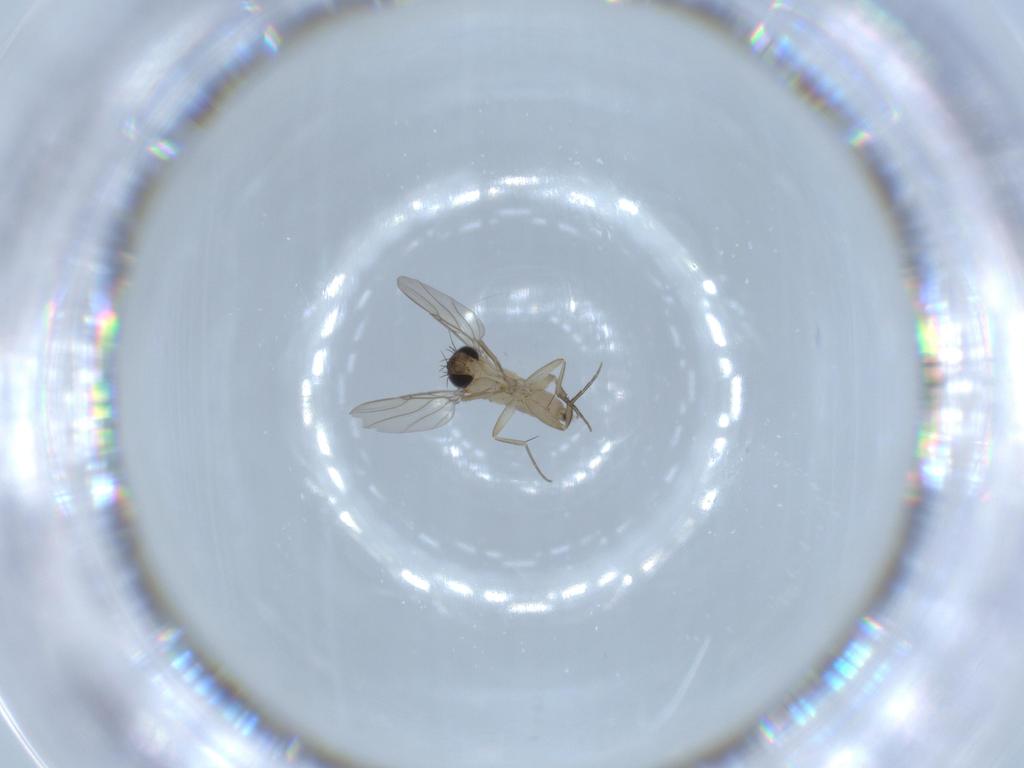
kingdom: Animalia
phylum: Arthropoda
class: Insecta
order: Diptera
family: Phoridae
